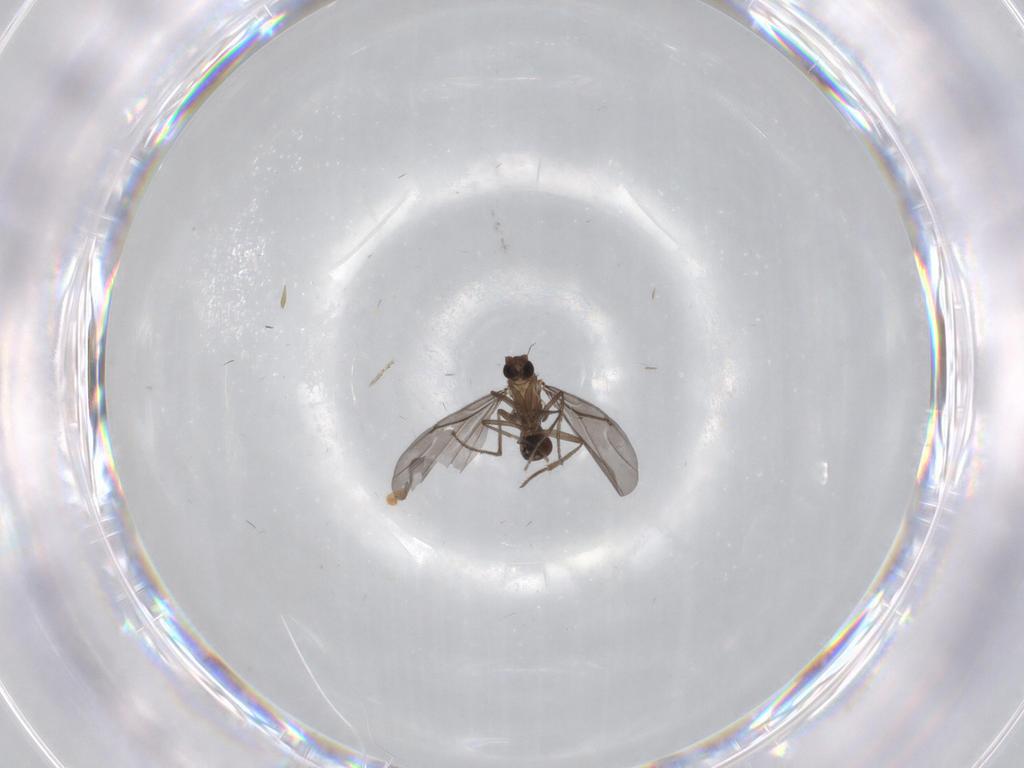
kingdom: Animalia
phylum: Arthropoda
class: Insecta
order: Diptera
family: Phoridae
